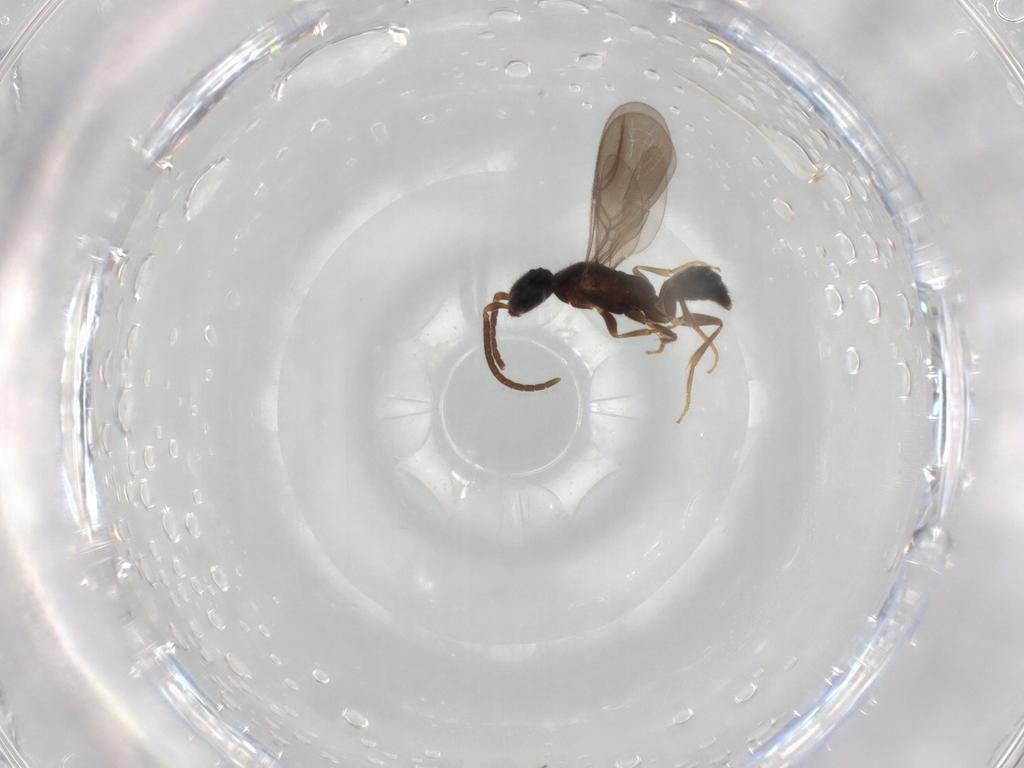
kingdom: Animalia
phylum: Arthropoda
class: Insecta
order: Hymenoptera
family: Bethylidae
